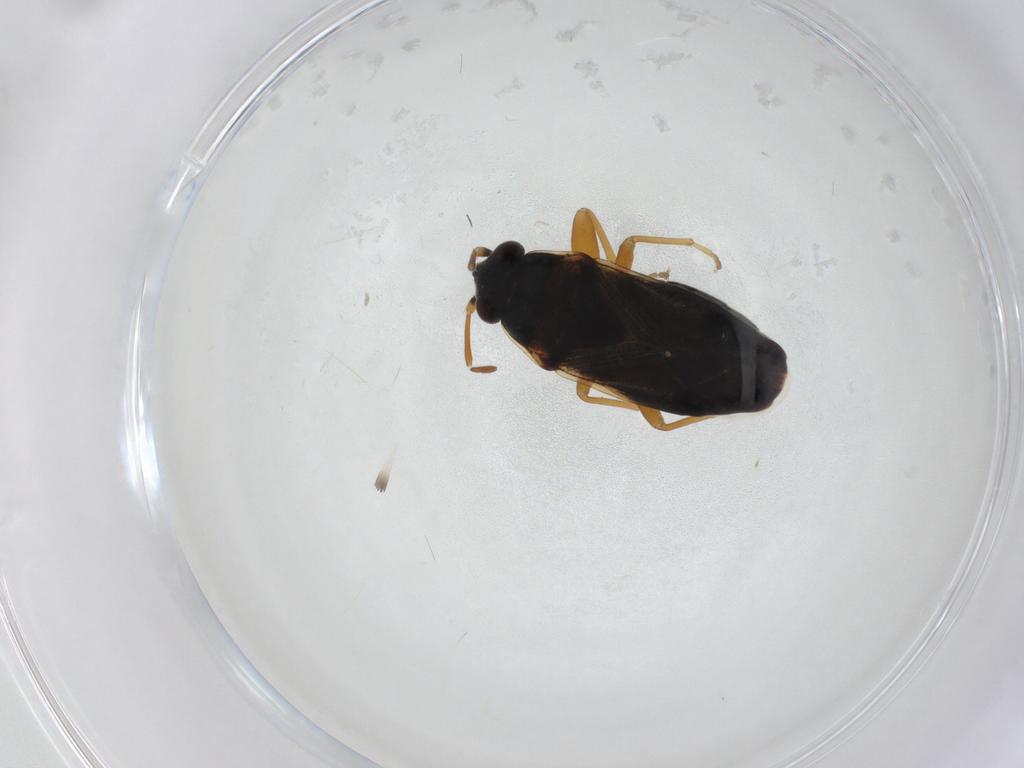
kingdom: Animalia
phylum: Arthropoda
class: Insecta
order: Hemiptera
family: Rhyparochromidae
